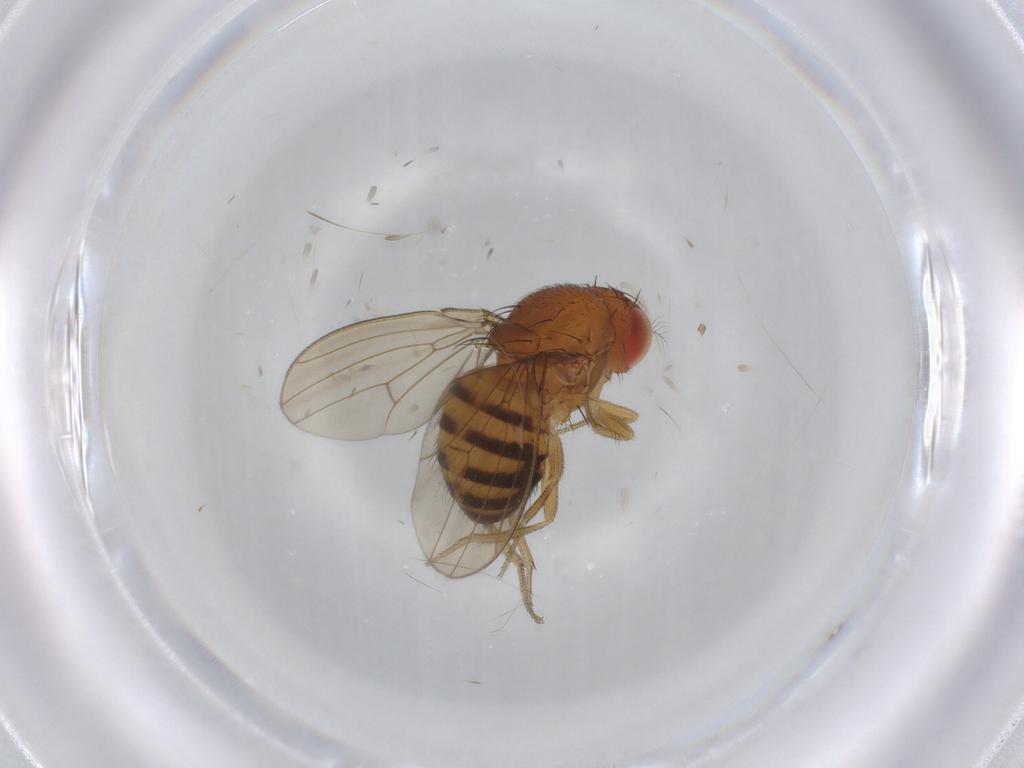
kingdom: Animalia
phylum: Arthropoda
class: Insecta
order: Diptera
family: Drosophilidae
